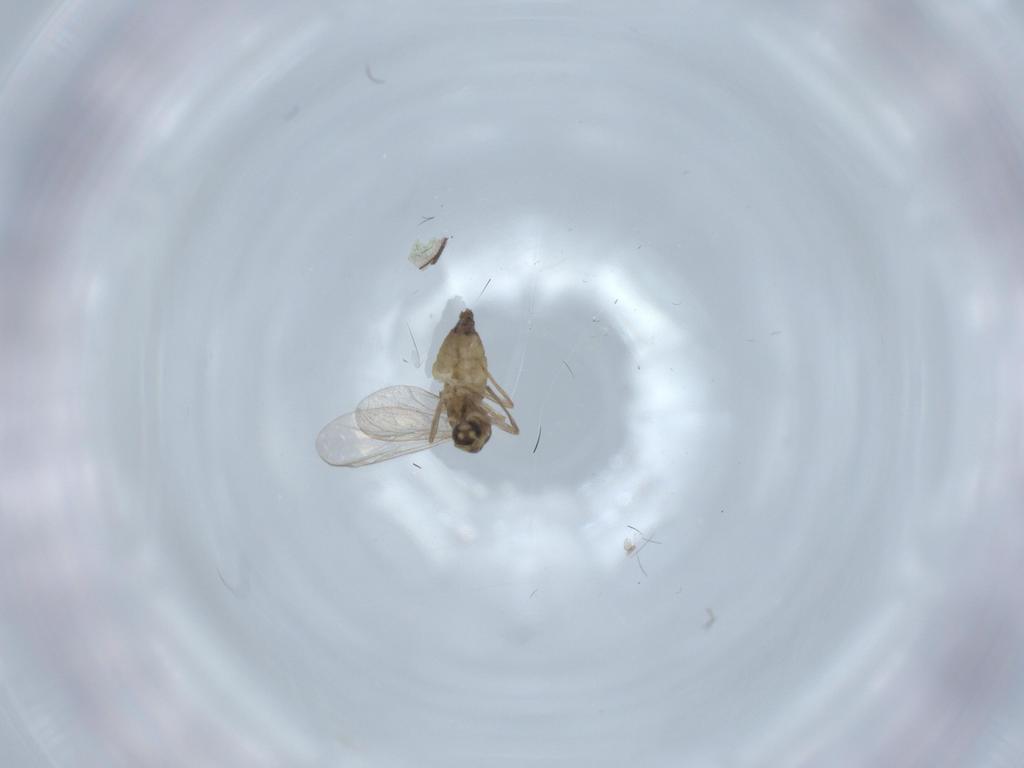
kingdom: Animalia
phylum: Arthropoda
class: Insecta
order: Diptera
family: Chironomidae
